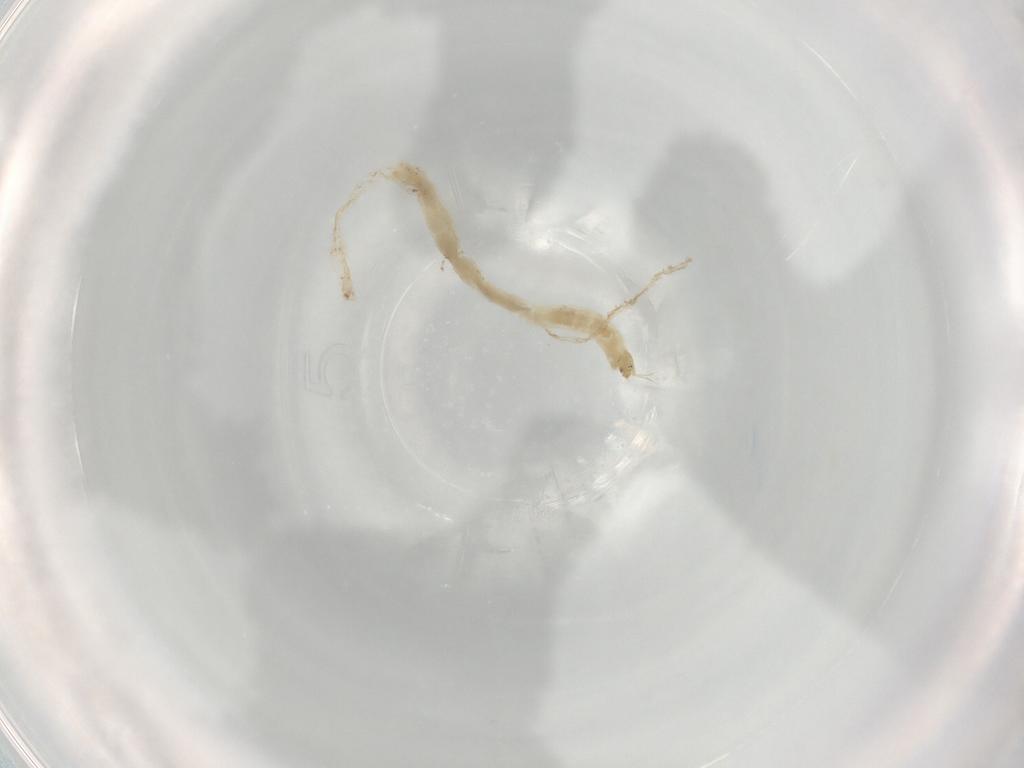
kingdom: Animalia
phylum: Arthropoda
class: Insecta
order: Diptera
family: Chironomidae
